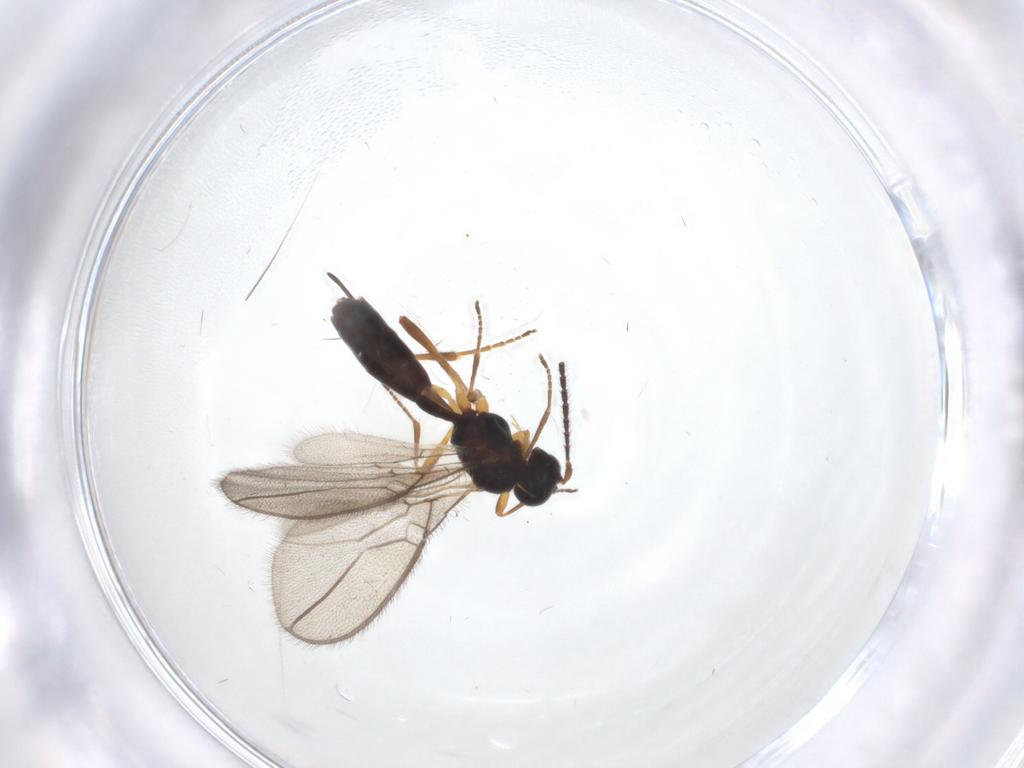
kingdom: Animalia
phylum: Arthropoda
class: Insecta
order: Hymenoptera
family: Braconidae
